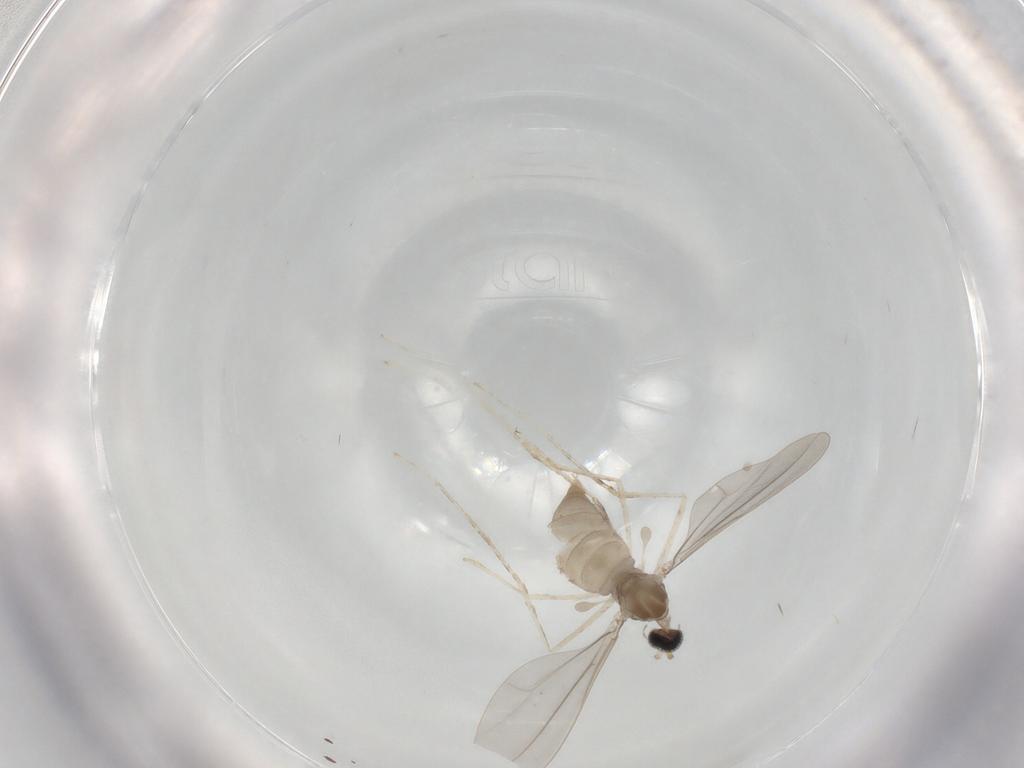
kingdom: Animalia
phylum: Arthropoda
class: Insecta
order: Diptera
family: Cecidomyiidae
